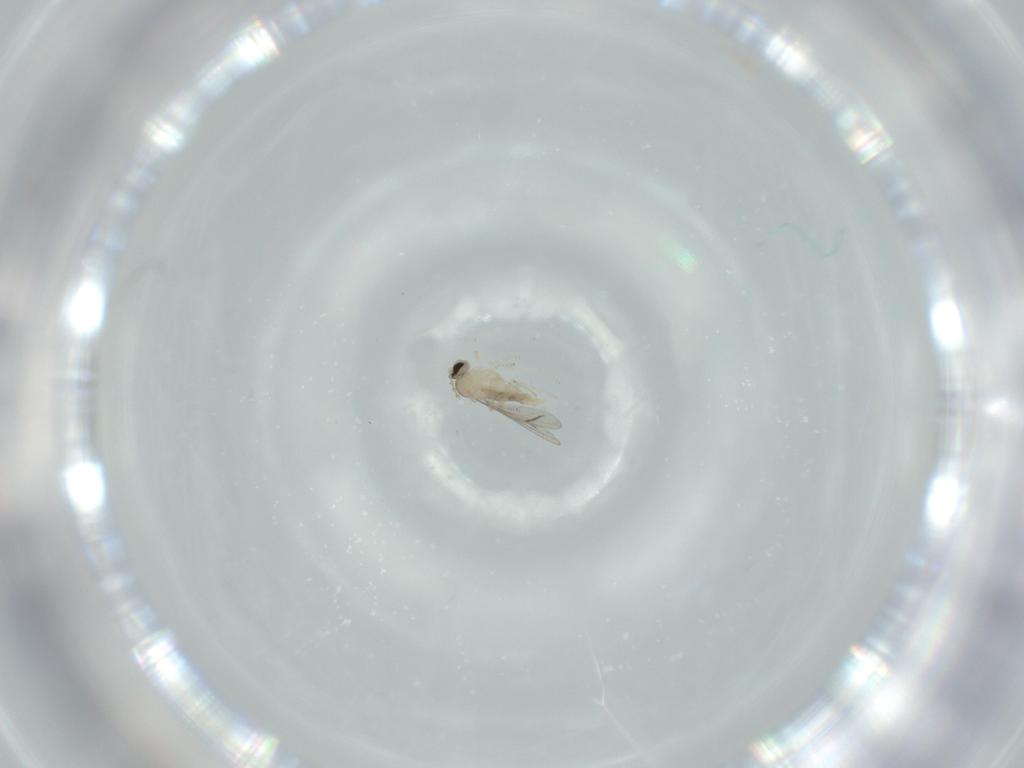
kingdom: Animalia
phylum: Arthropoda
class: Insecta
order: Diptera
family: Cecidomyiidae
